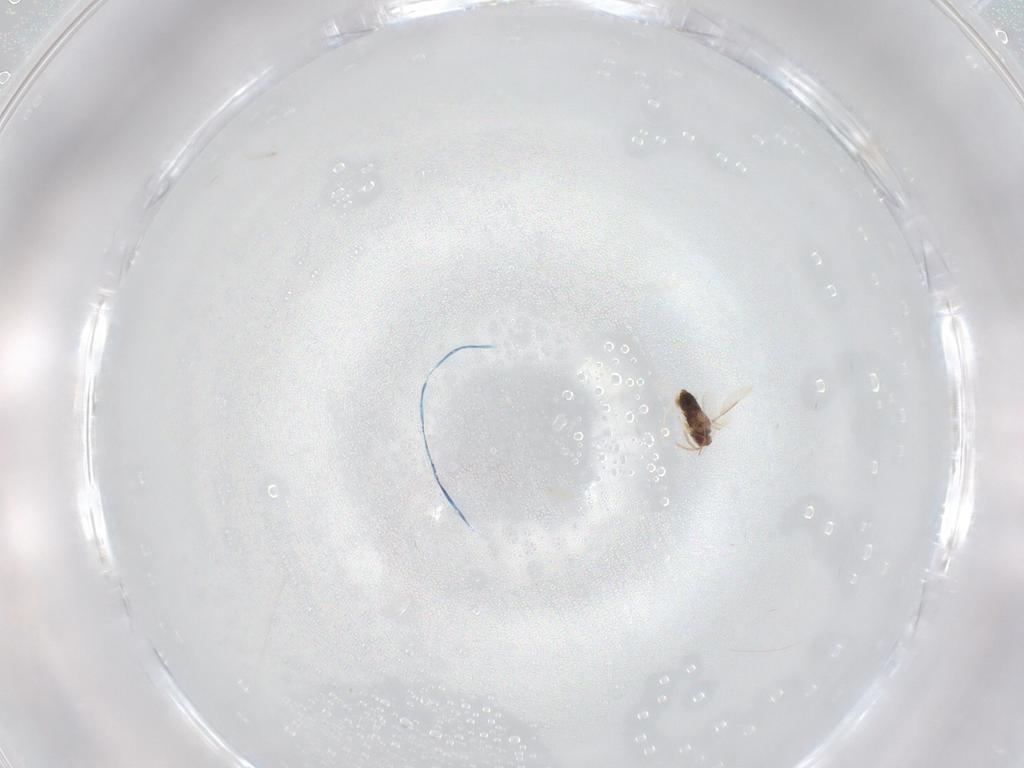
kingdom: Animalia
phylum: Arthropoda
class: Insecta
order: Hymenoptera
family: Aphelinidae
